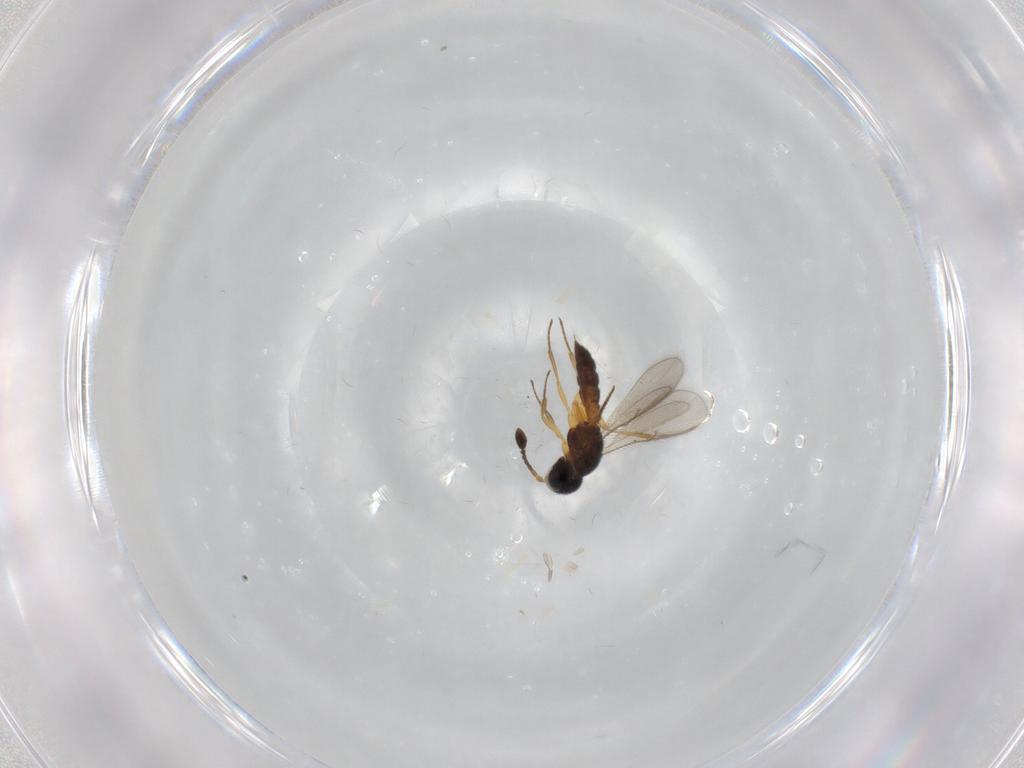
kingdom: Animalia
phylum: Arthropoda
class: Insecta
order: Hymenoptera
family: Scelionidae
